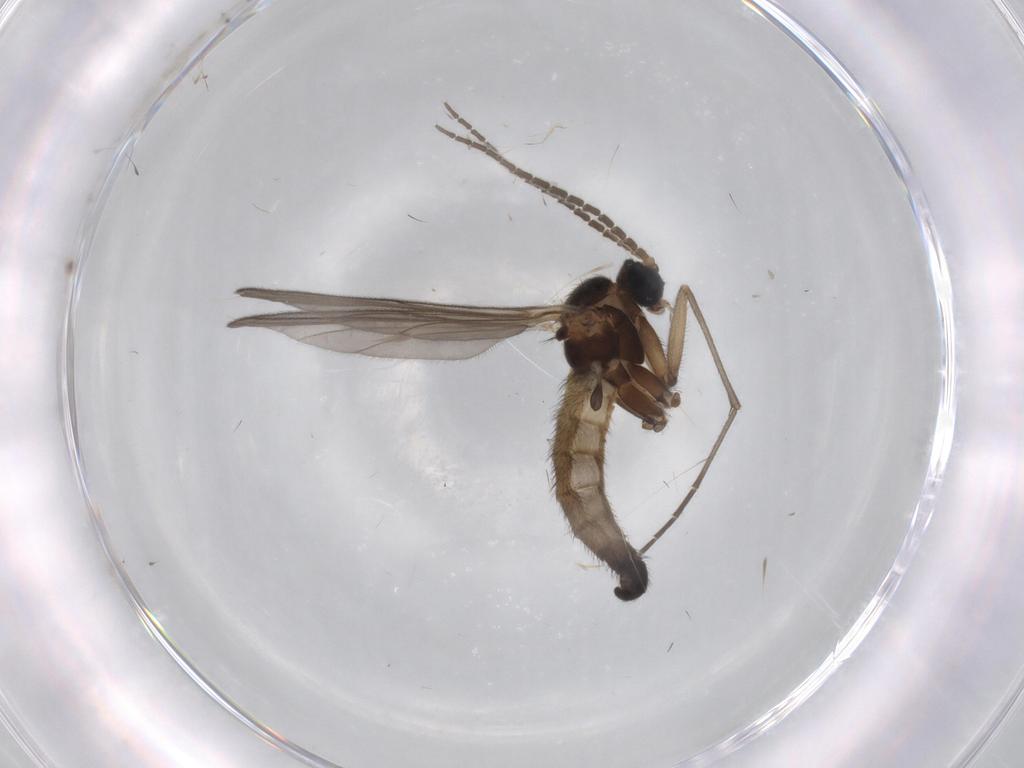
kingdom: Animalia
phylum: Arthropoda
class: Insecta
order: Diptera
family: Sciaridae
